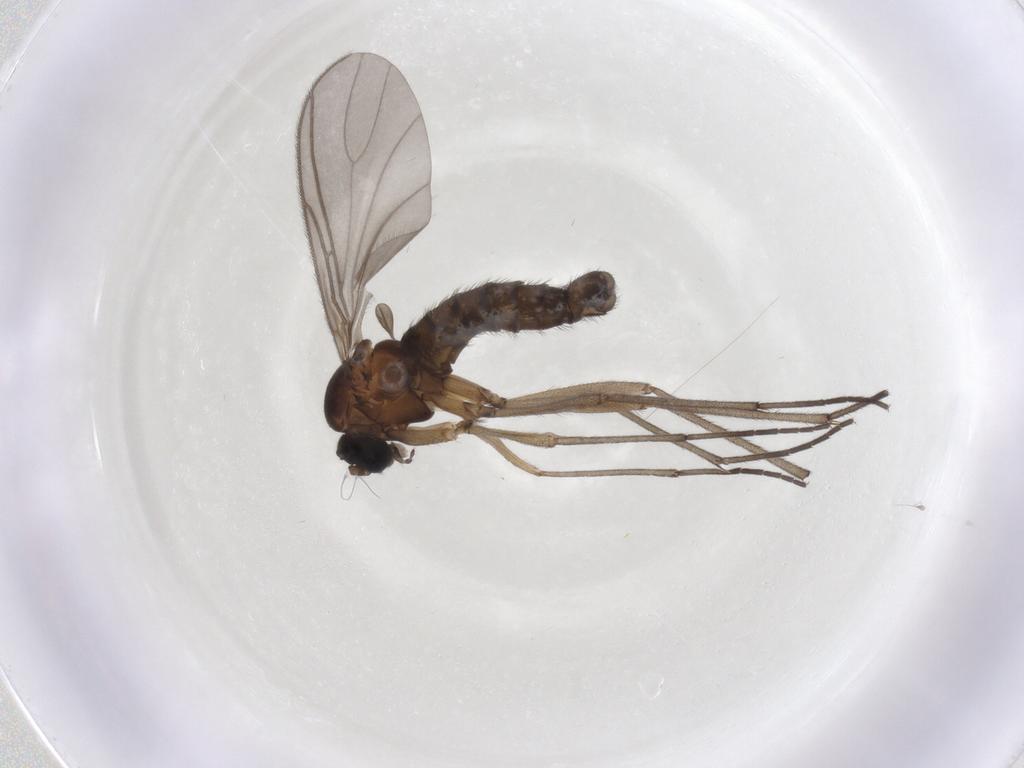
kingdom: Animalia
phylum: Arthropoda
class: Insecta
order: Diptera
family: Sciaridae
